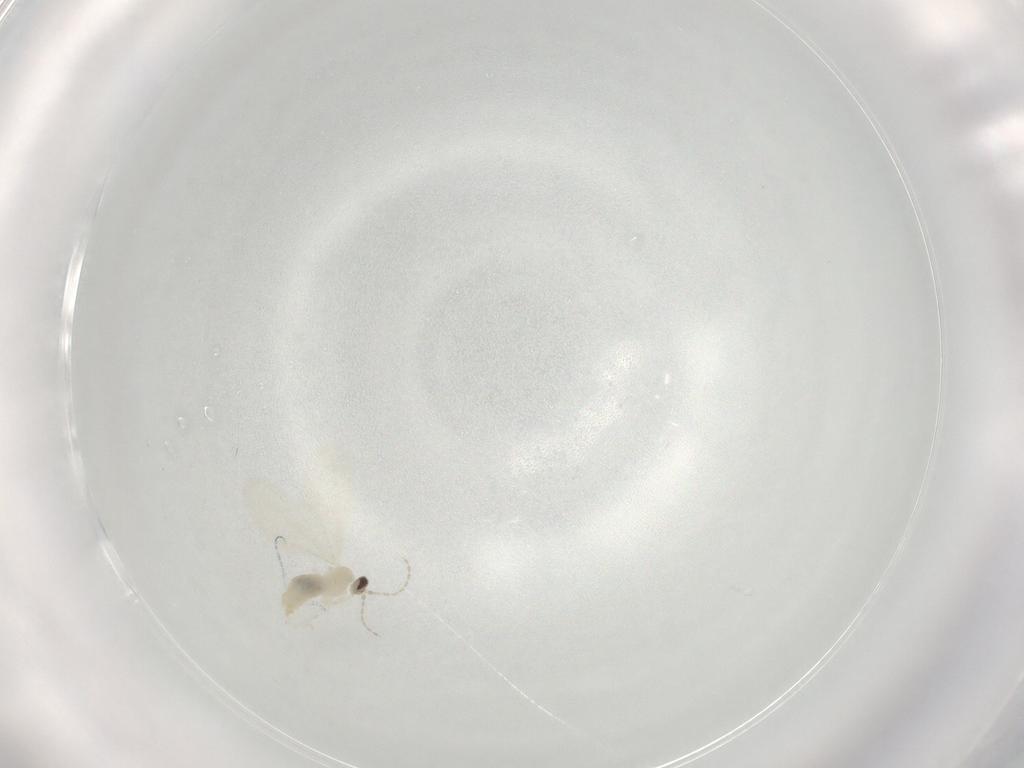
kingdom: Animalia
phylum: Arthropoda
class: Insecta
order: Diptera
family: Cecidomyiidae
